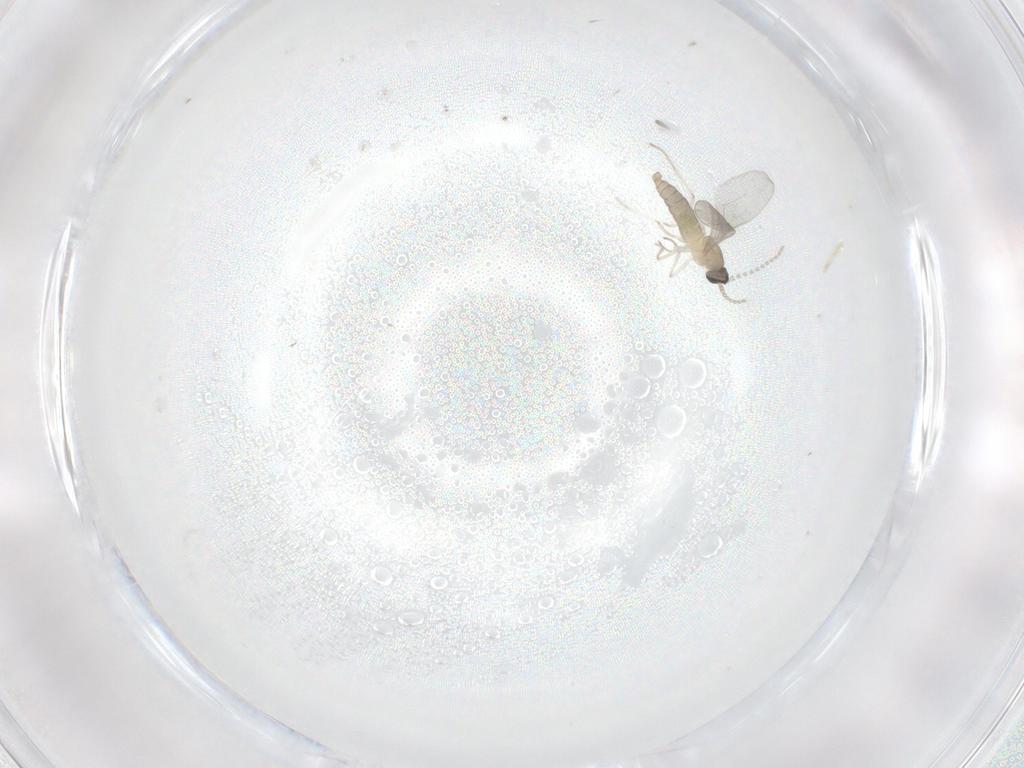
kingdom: Animalia
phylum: Arthropoda
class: Insecta
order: Diptera
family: Cecidomyiidae
